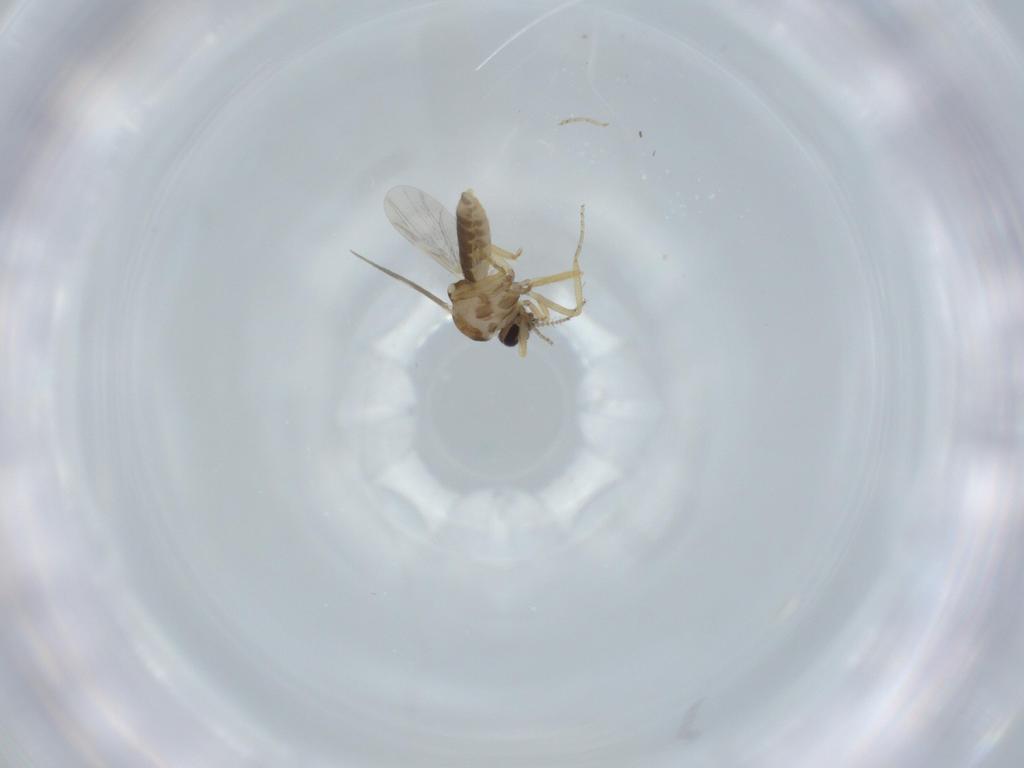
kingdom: Animalia
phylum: Arthropoda
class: Insecta
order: Diptera
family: Ceratopogonidae
